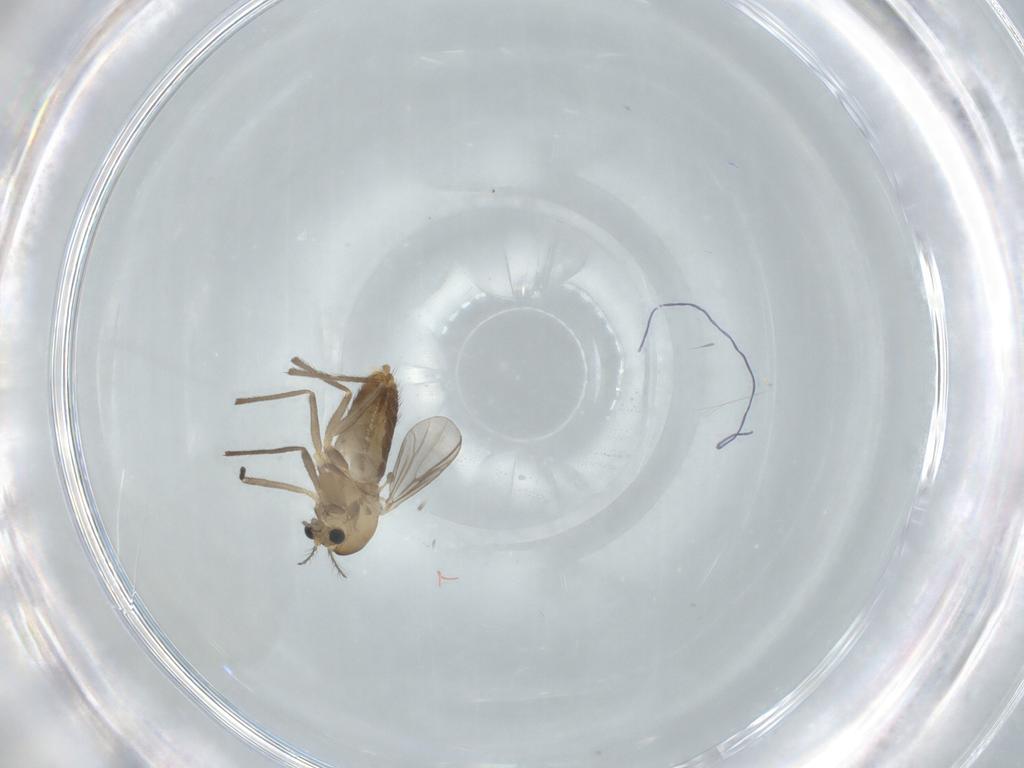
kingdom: Animalia
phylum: Arthropoda
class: Insecta
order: Diptera
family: Chironomidae
